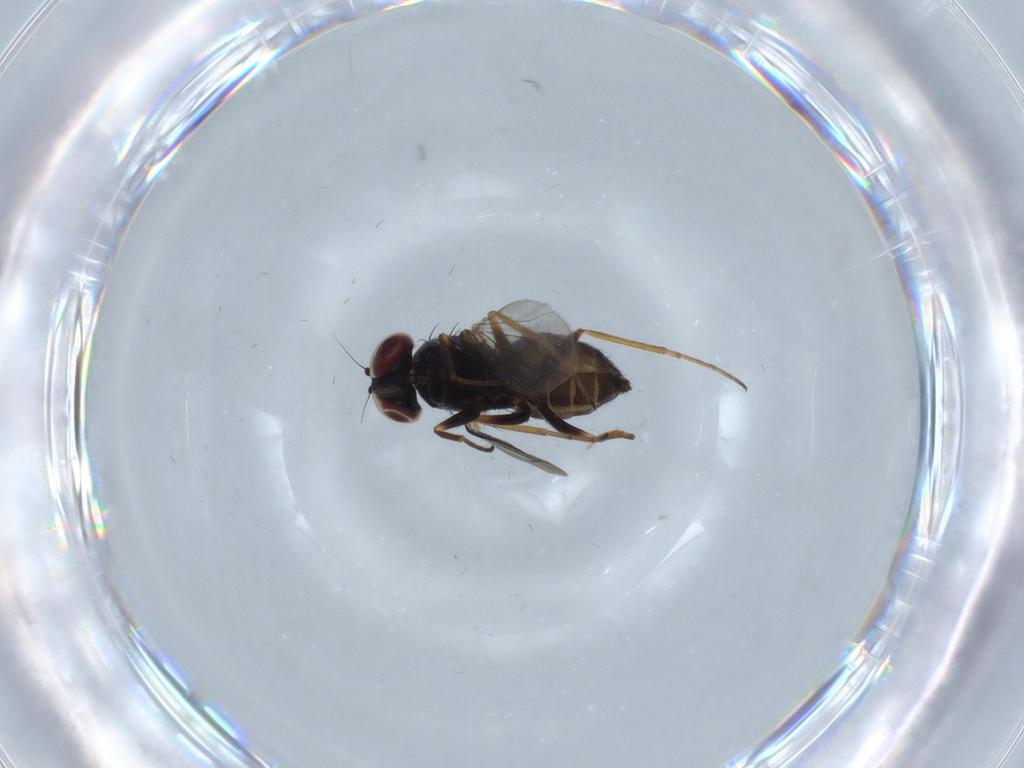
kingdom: Animalia
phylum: Arthropoda
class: Insecta
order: Diptera
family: Dolichopodidae
